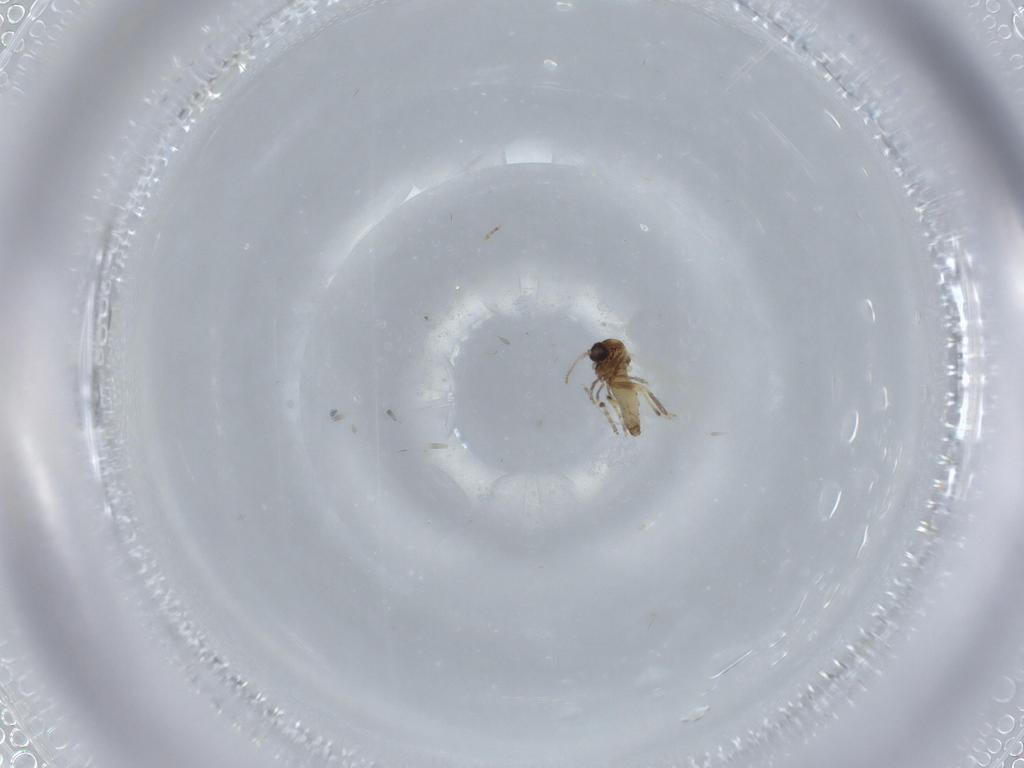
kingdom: Animalia
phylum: Arthropoda
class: Insecta
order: Diptera
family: Ceratopogonidae
